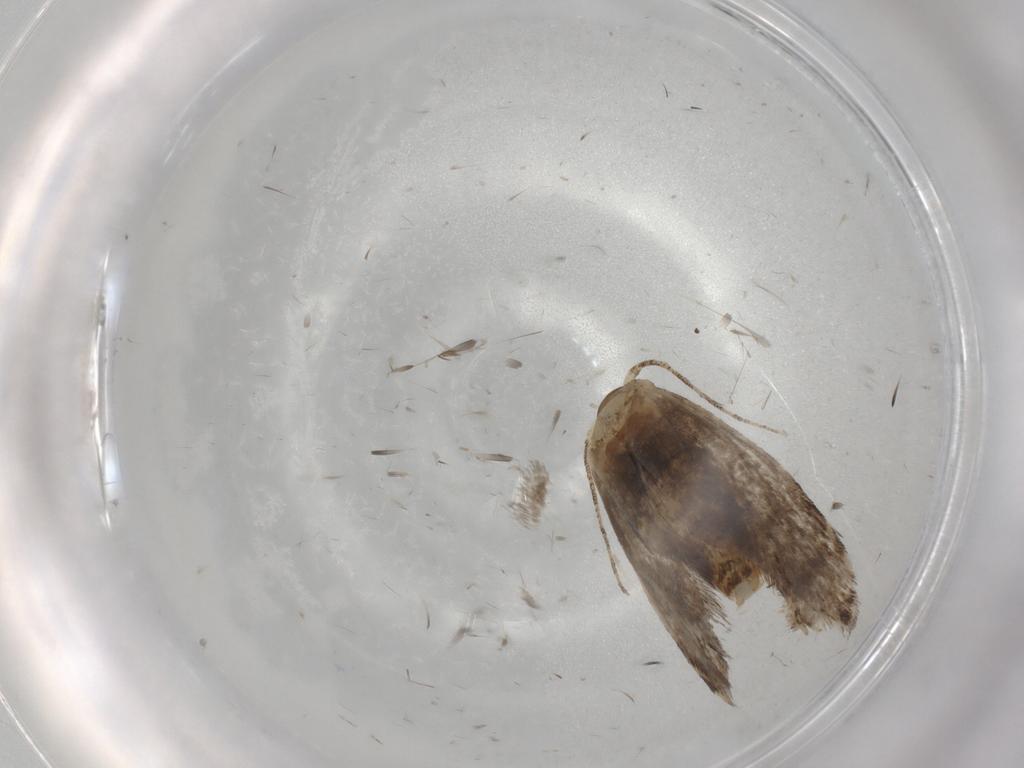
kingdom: Animalia
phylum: Arthropoda
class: Insecta
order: Lepidoptera
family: Tineidae
